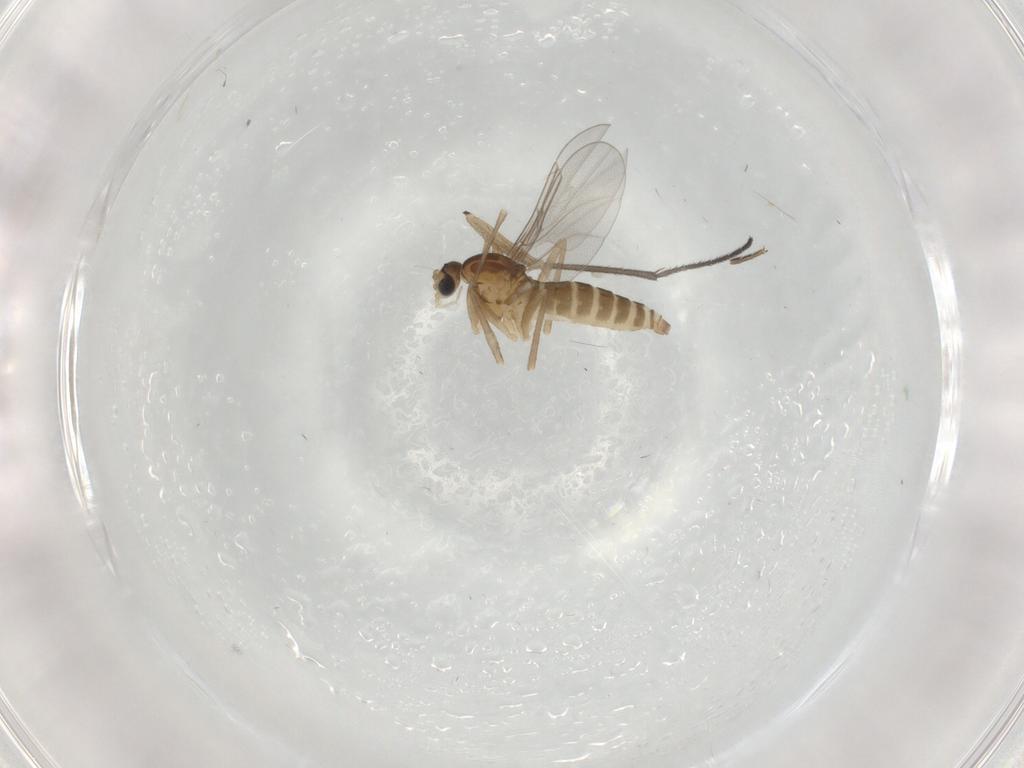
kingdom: Animalia
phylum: Arthropoda
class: Insecta
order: Diptera
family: Cecidomyiidae
